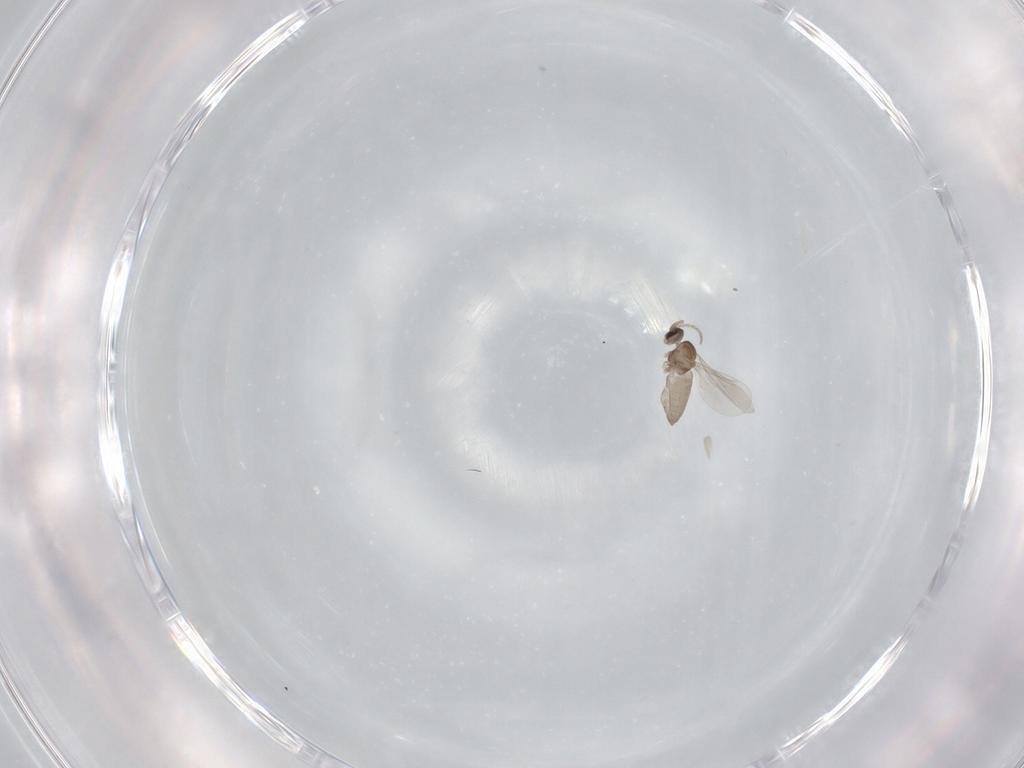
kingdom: Animalia
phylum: Arthropoda
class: Insecta
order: Diptera
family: Cecidomyiidae
